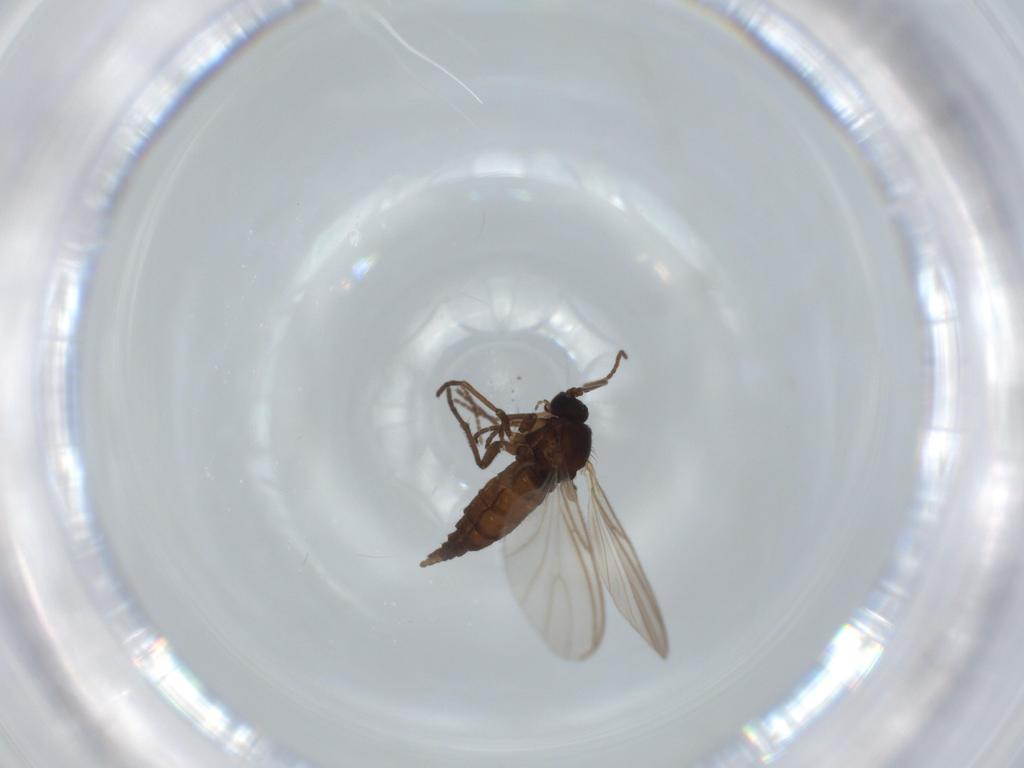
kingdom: Animalia
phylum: Arthropoda
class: Insecta
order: Diptera
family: Sciaridae
